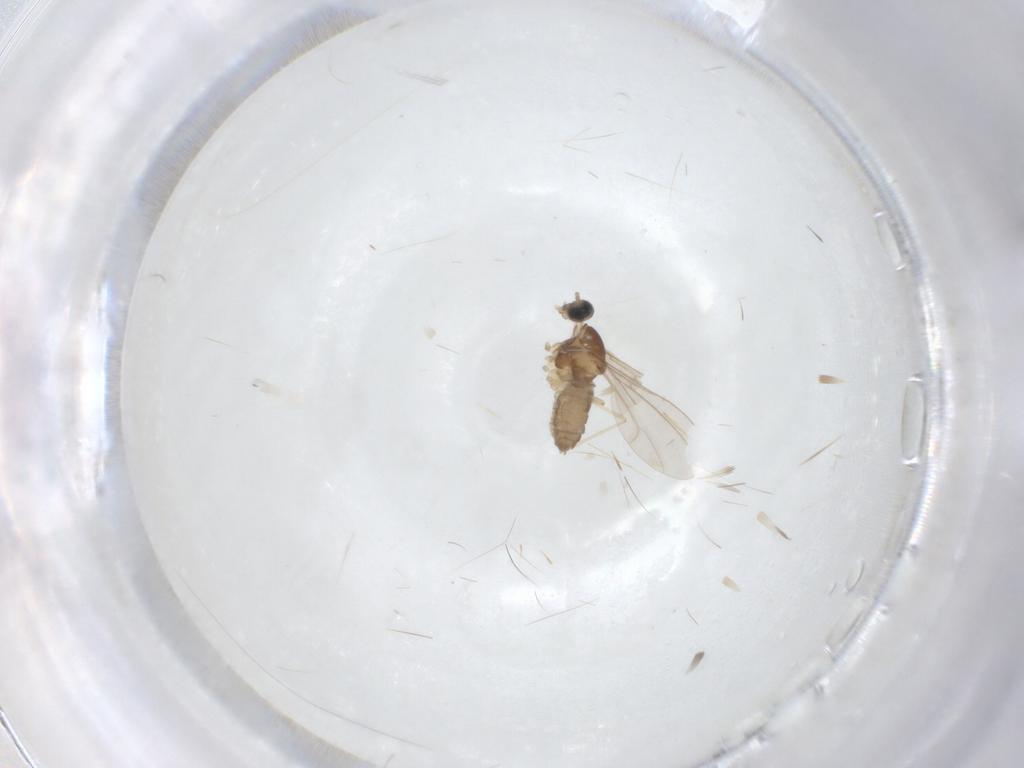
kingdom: Animalia
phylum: Arthropoda
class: Insecta
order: Diptera
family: Cecidomyiidae
